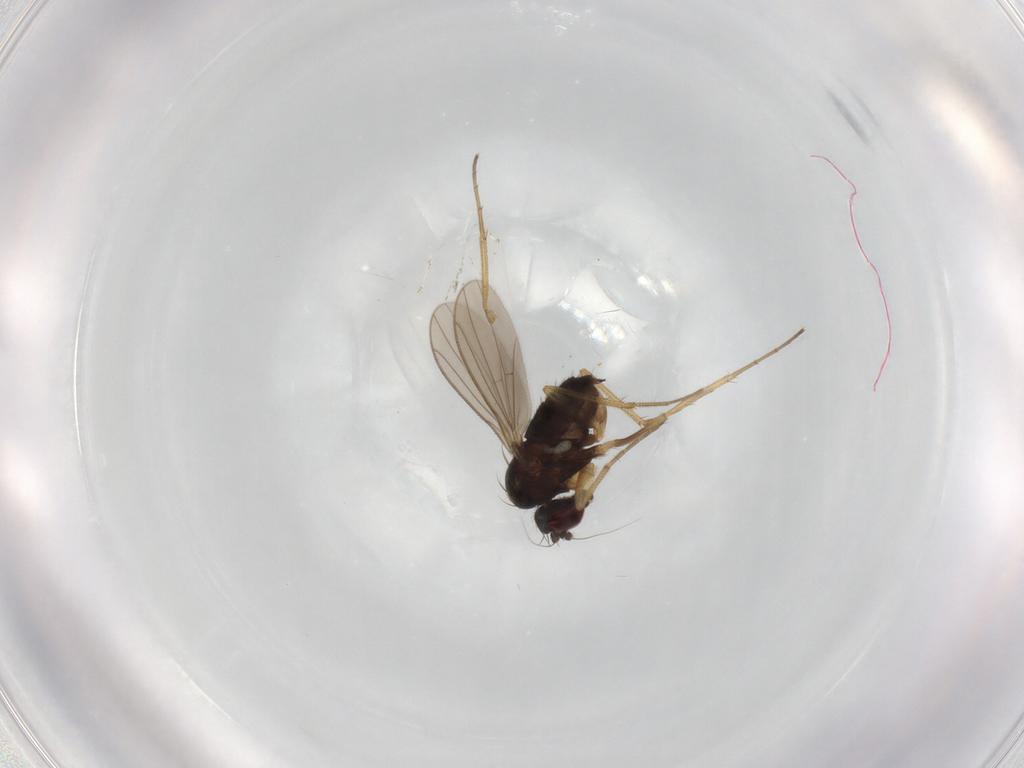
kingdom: Animalia
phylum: Arthropoda
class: Insecta
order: Diptera
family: Dolichopodidae
